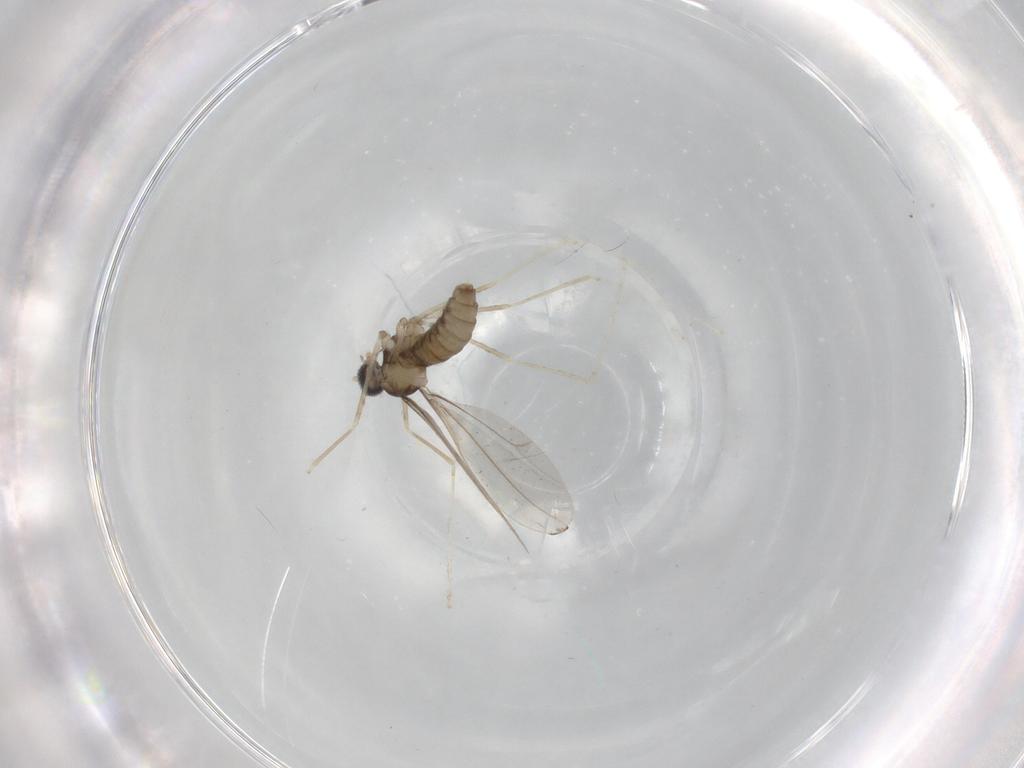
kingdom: Animalia
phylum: Arthropoda
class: Insecta
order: Diptera
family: Cecidomyiidae
